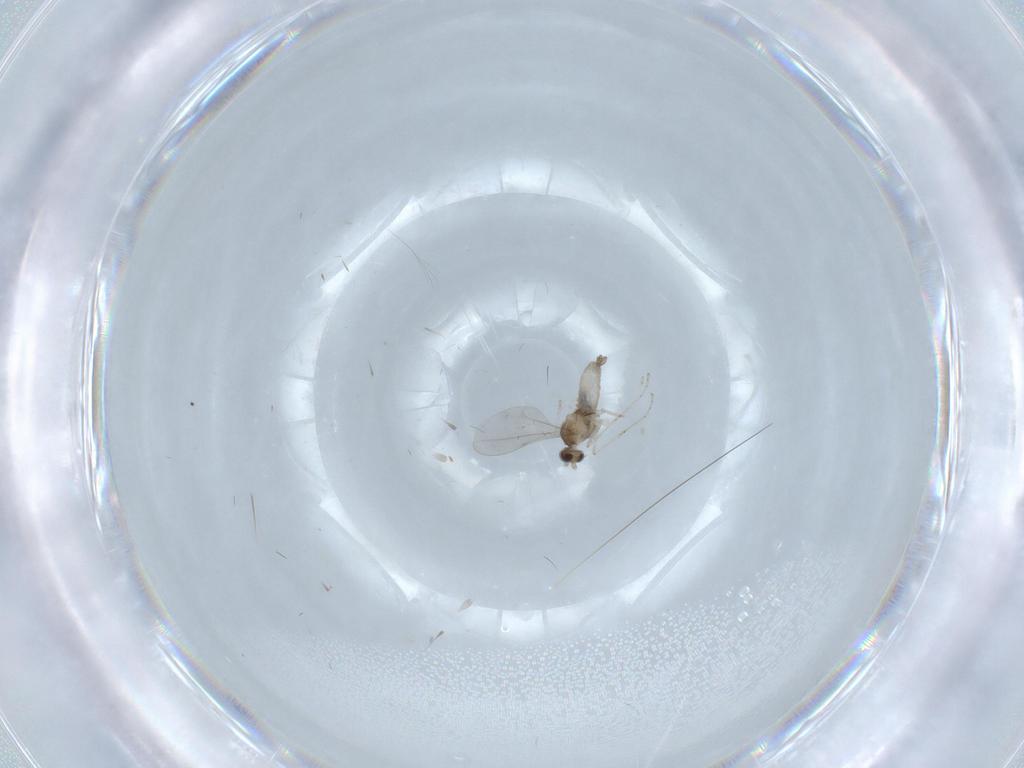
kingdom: Animalia
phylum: Arthropoda
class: Insecta
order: Diptera
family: Cecidomyiidae
